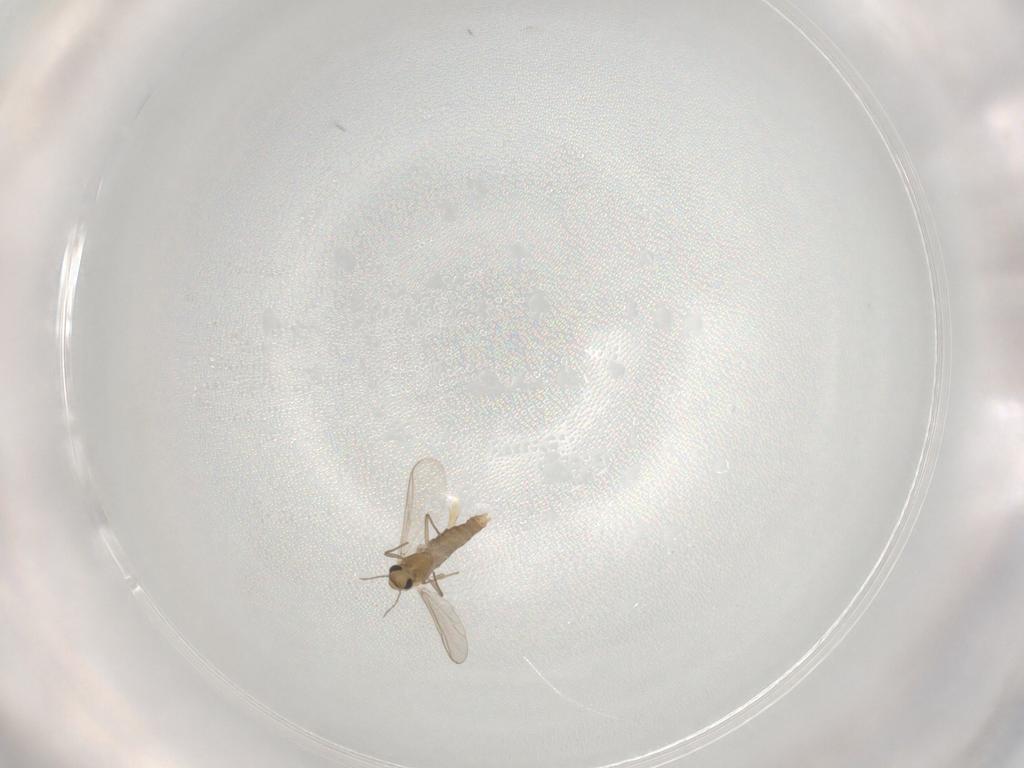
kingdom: Animalia
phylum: Arthropoda
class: Insecta
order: Diptera
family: Chironomidae
